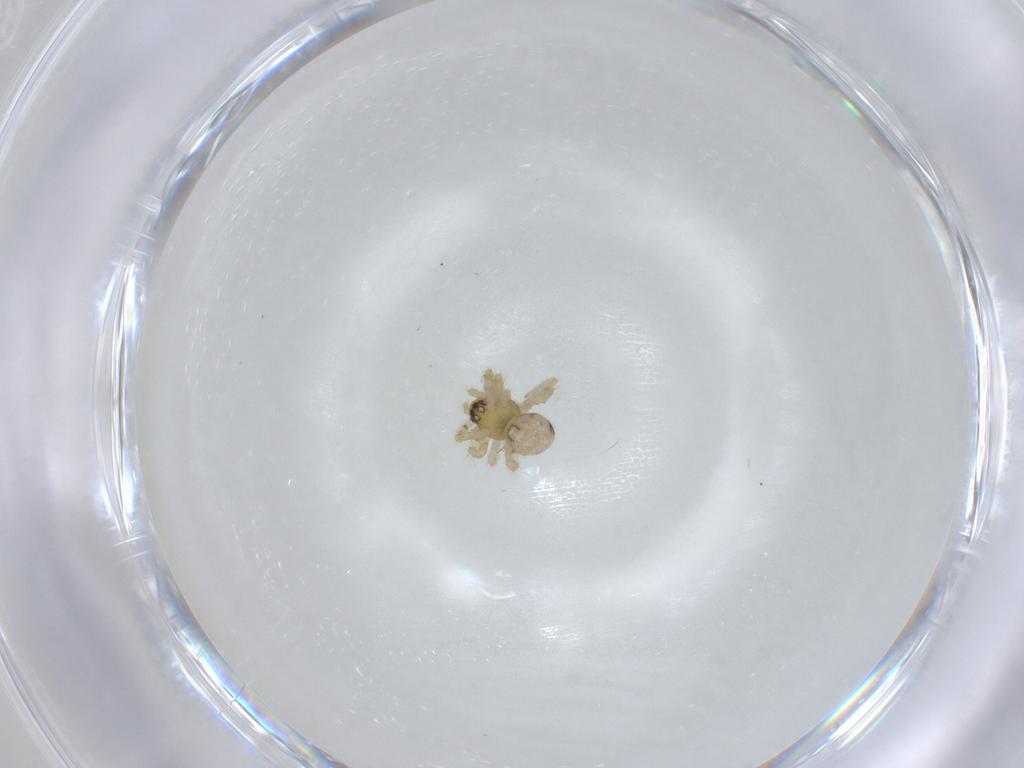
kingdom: Animalia
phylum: Arthropoda
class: Arachnida
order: Araneae
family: Theridiidae
